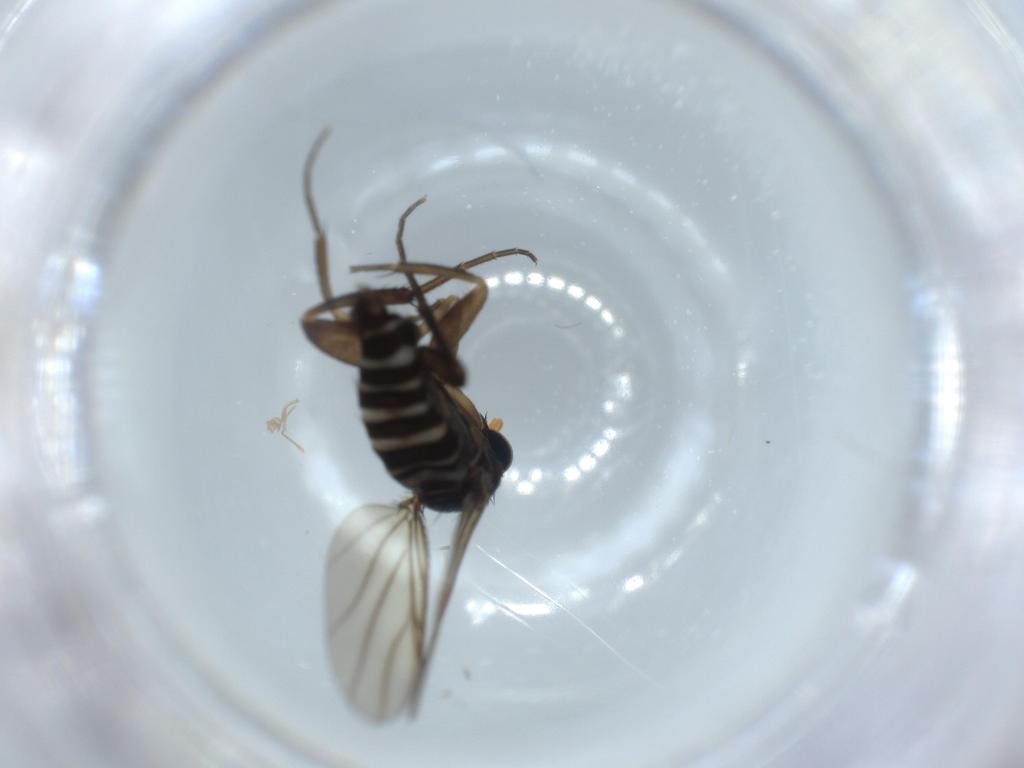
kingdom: Animalia
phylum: Arthropoda
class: Insecta
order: Diptera
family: Phoridae
